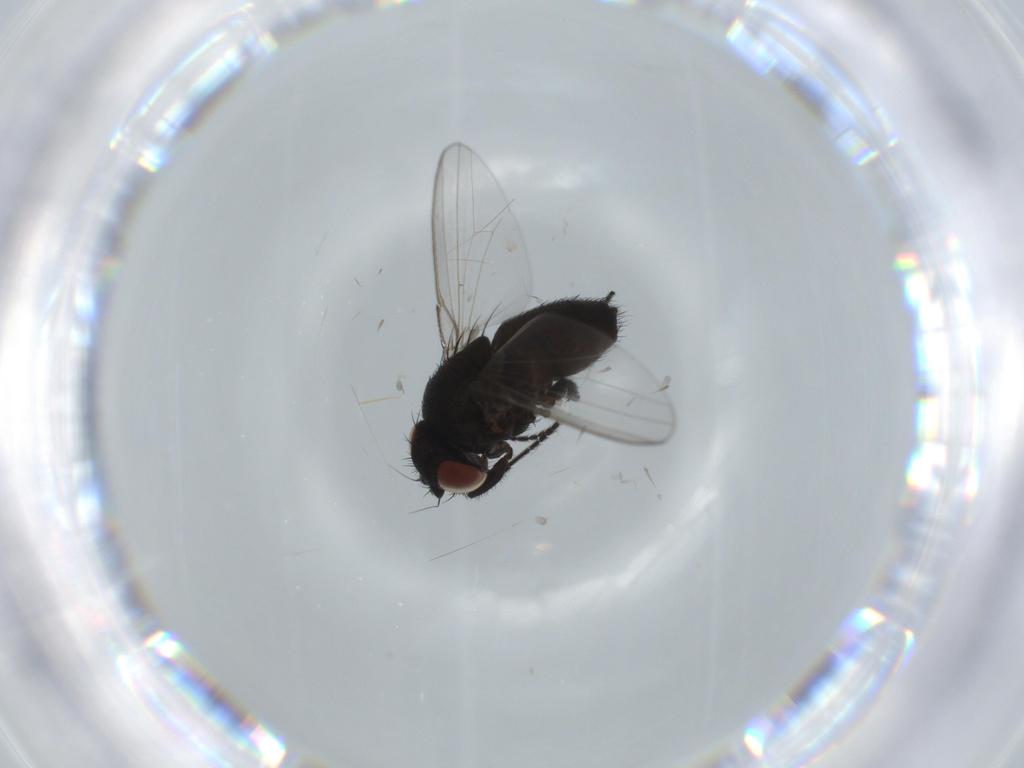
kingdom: Animalia
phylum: Arthropoda
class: Insecta
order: Diptera
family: Milichiidae
